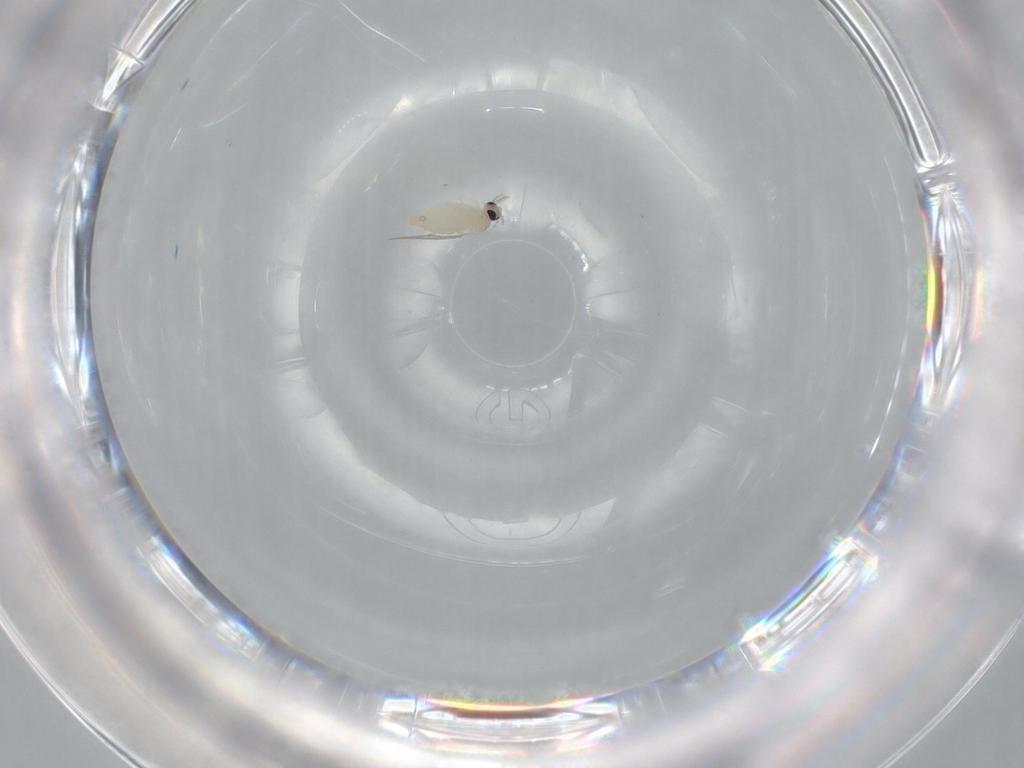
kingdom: Animalia
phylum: Arthropoda
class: Insecta
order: Diptera
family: Cecidomyiidae
